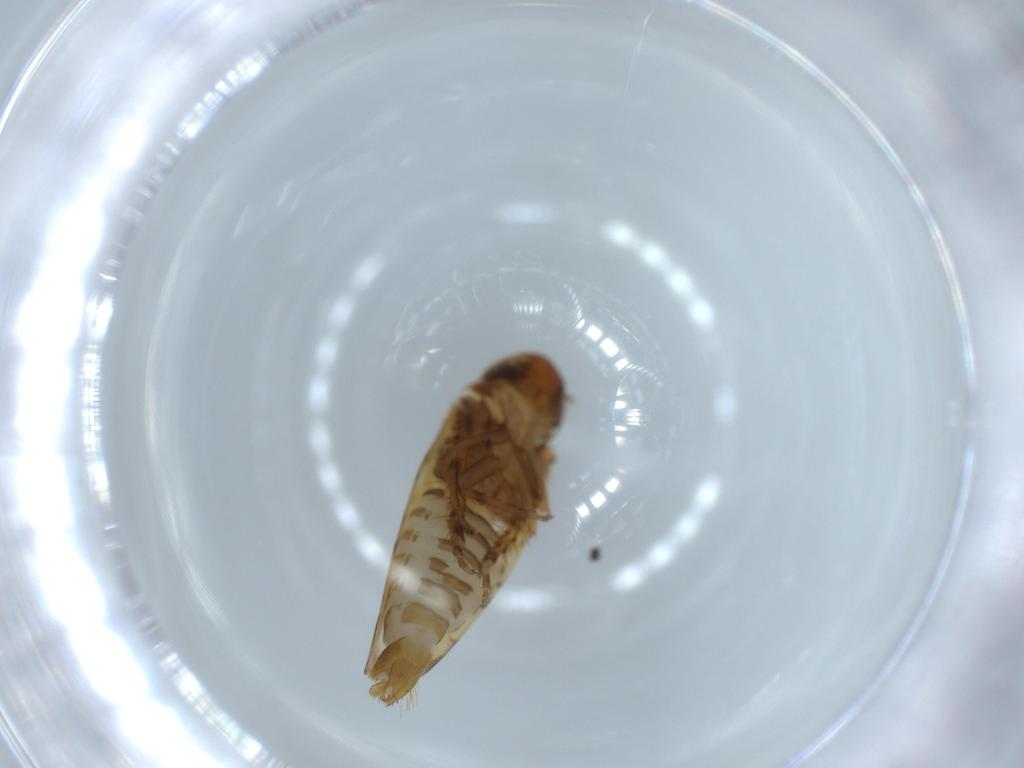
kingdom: Animalia
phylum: Arthropoda
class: Insecta
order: Hemiptera
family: Cicadellidae
